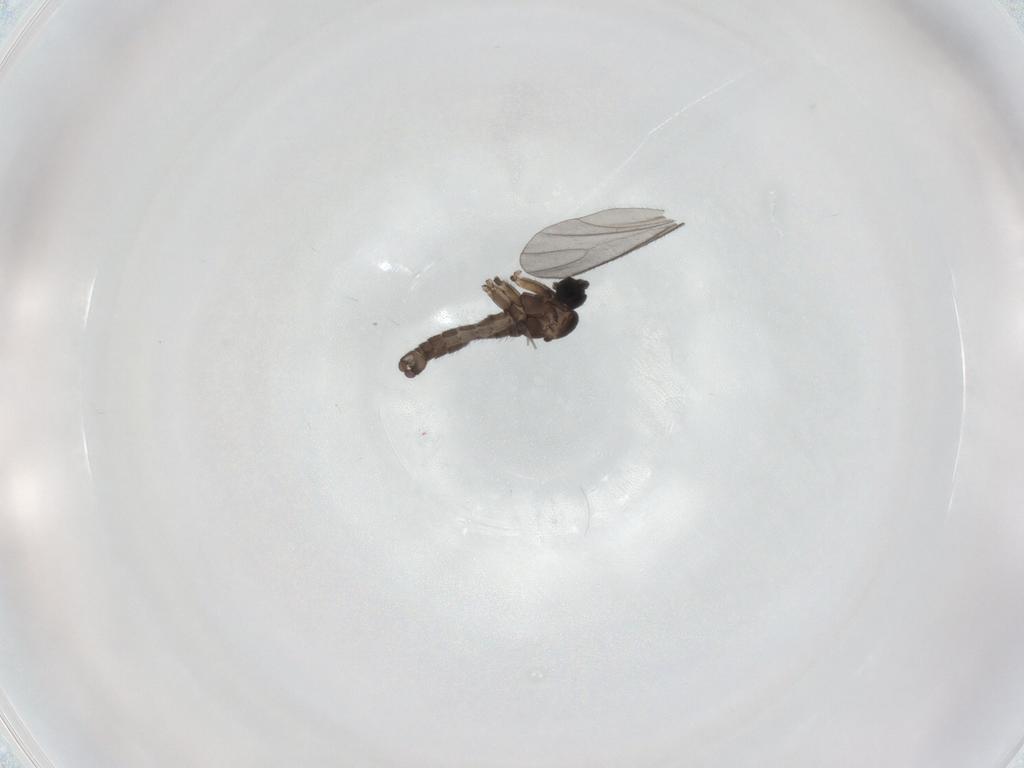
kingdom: Animalia
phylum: Arthropoda
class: Insecta
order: Diptera
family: Sciaridae
